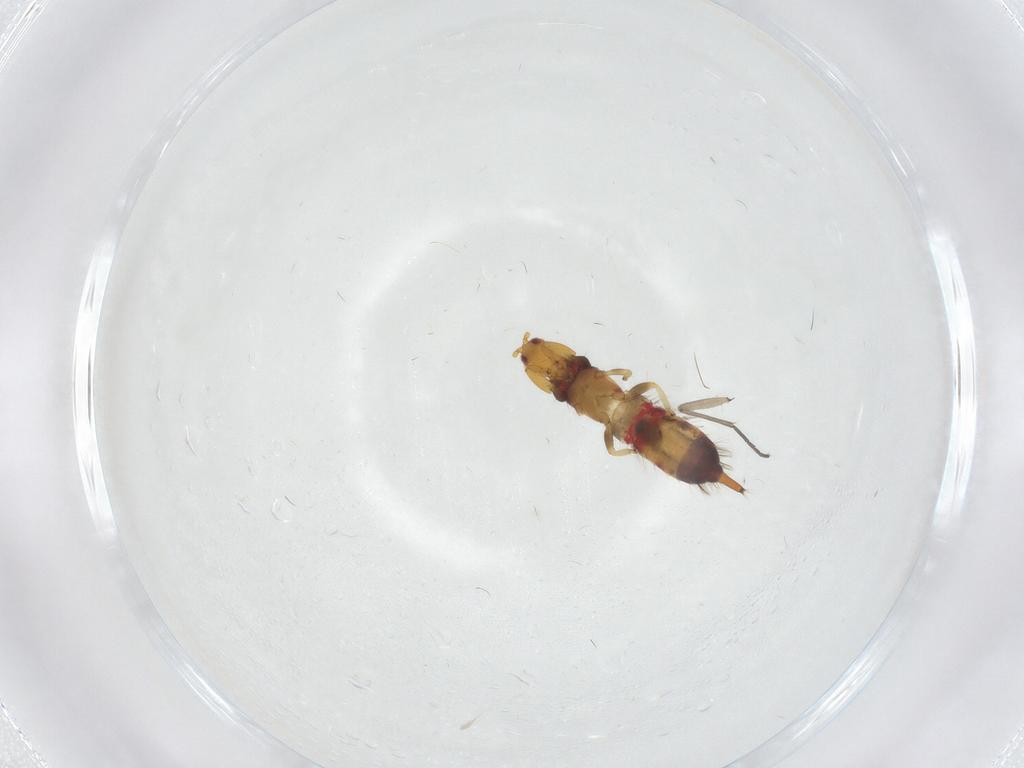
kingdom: Animalia
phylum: Arthropoda
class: Insecta
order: Thysanoptera
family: Phlaeothripidae
